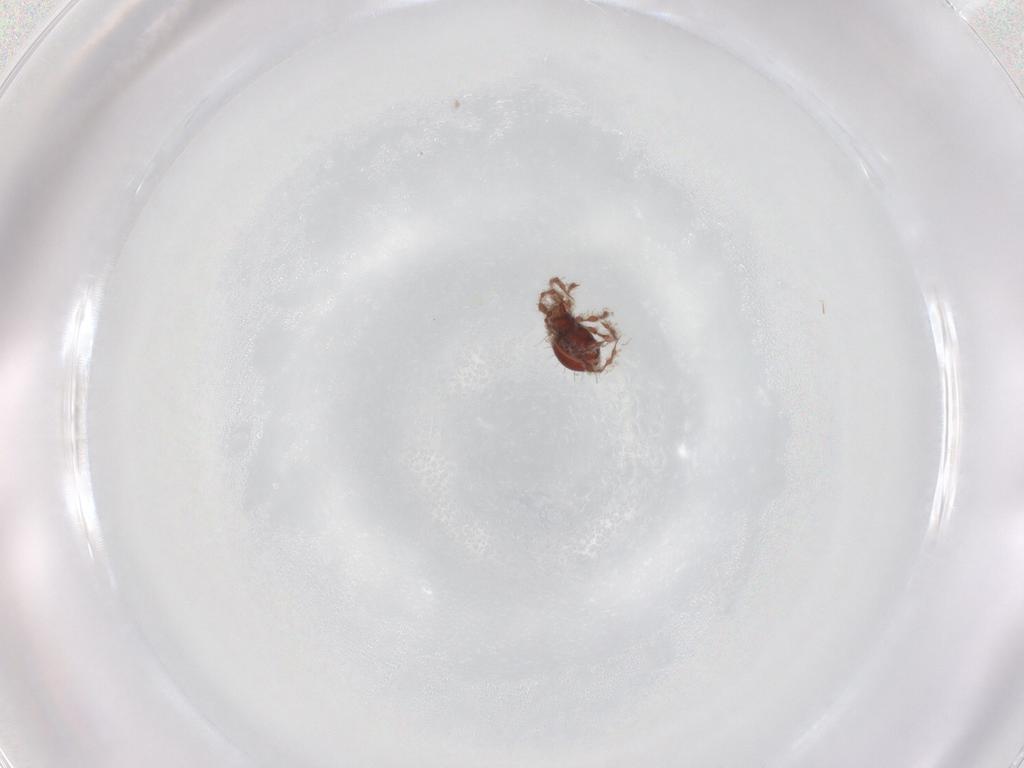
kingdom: Animalia
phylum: Arthropoda
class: Arachnida
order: Sarcoptiformes
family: Damaeidae
